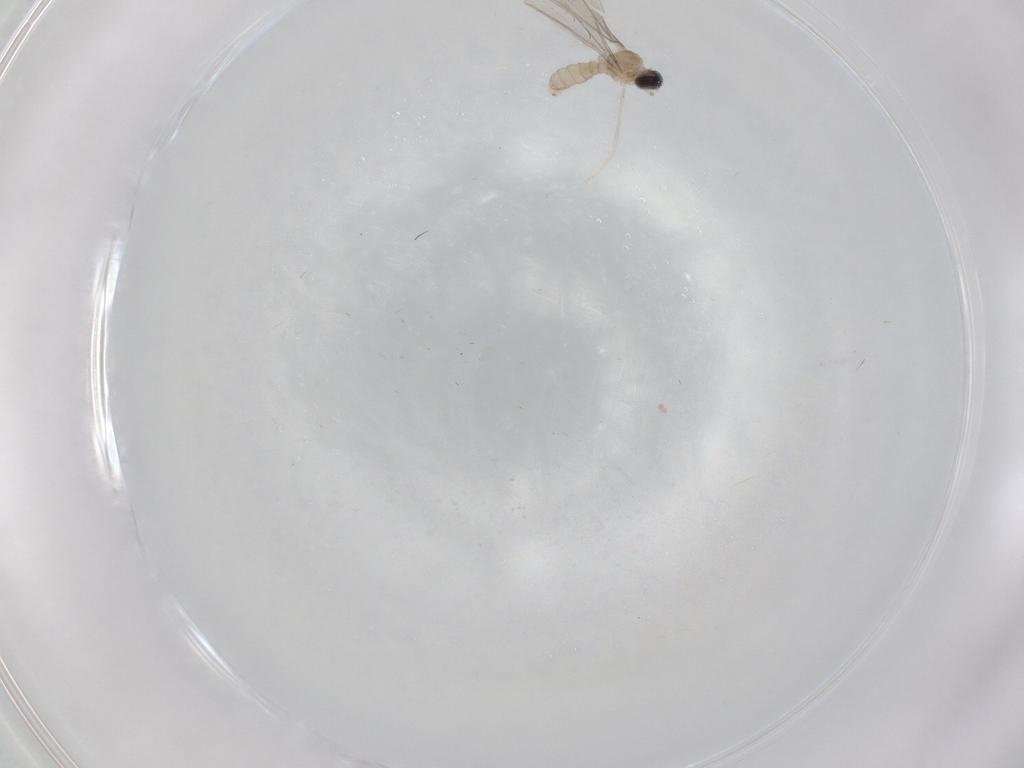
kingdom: Animalia
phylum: Arthropoda
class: Insecta
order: Diptera
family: Cecidomyiidae
